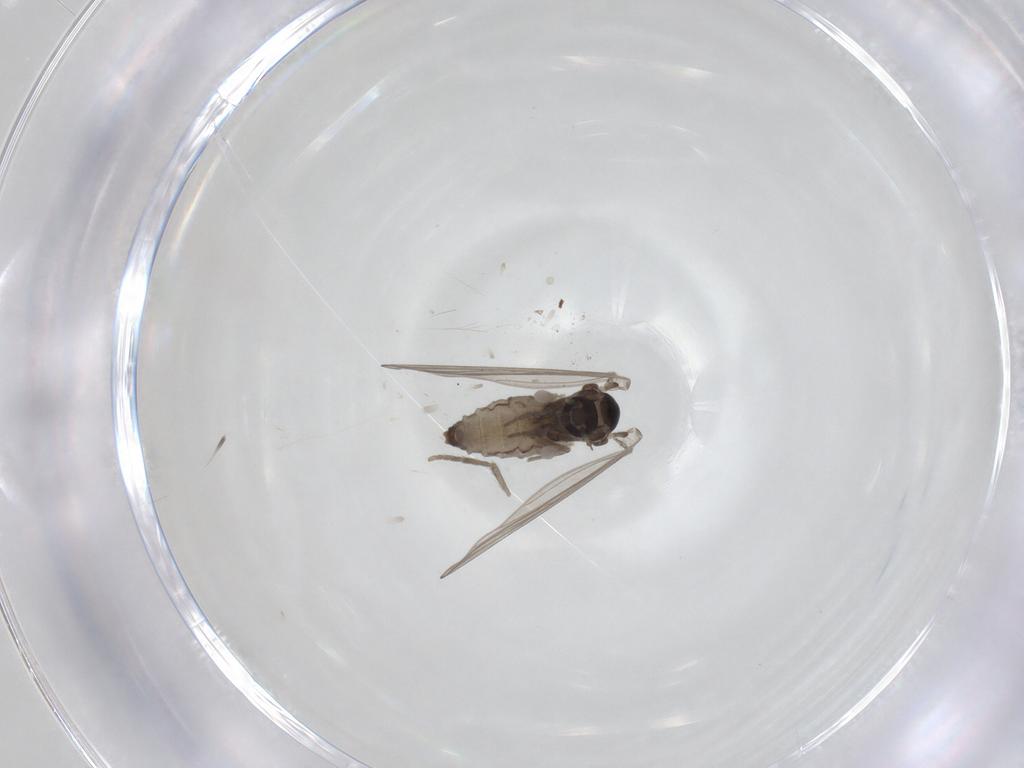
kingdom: Animalia
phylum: Arthropoda
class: Insecta
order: Diptera
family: Psychodidae
